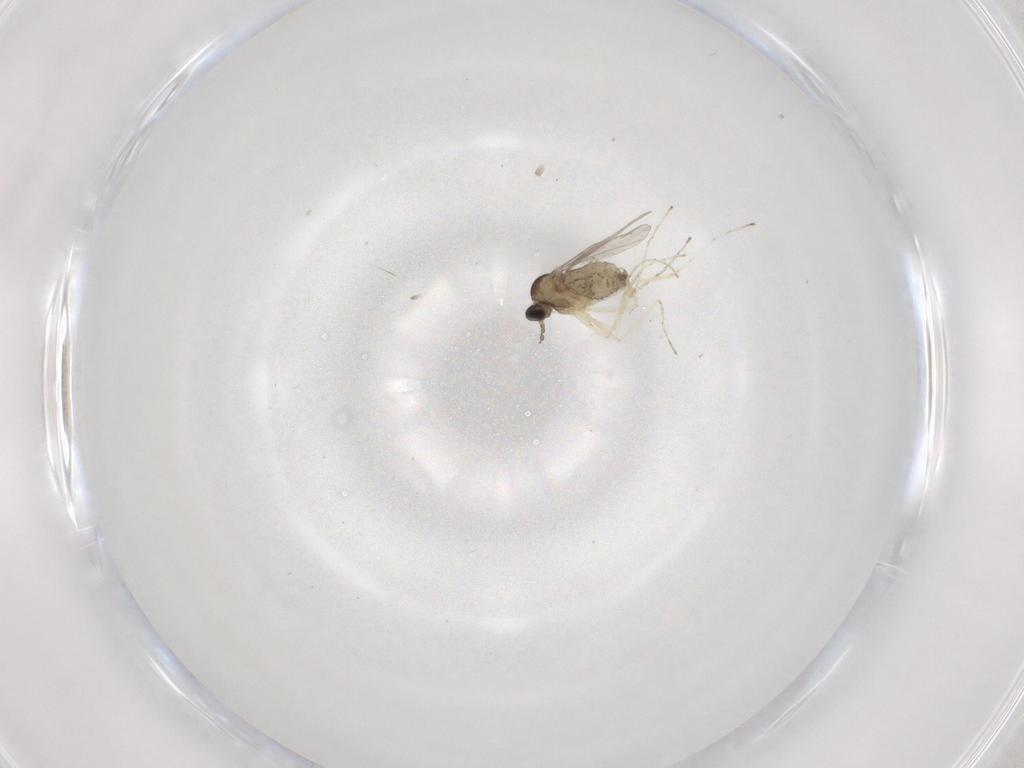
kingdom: Animalia
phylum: Arthropoda
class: Insecta
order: Diptera
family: Cecidomyiidae
